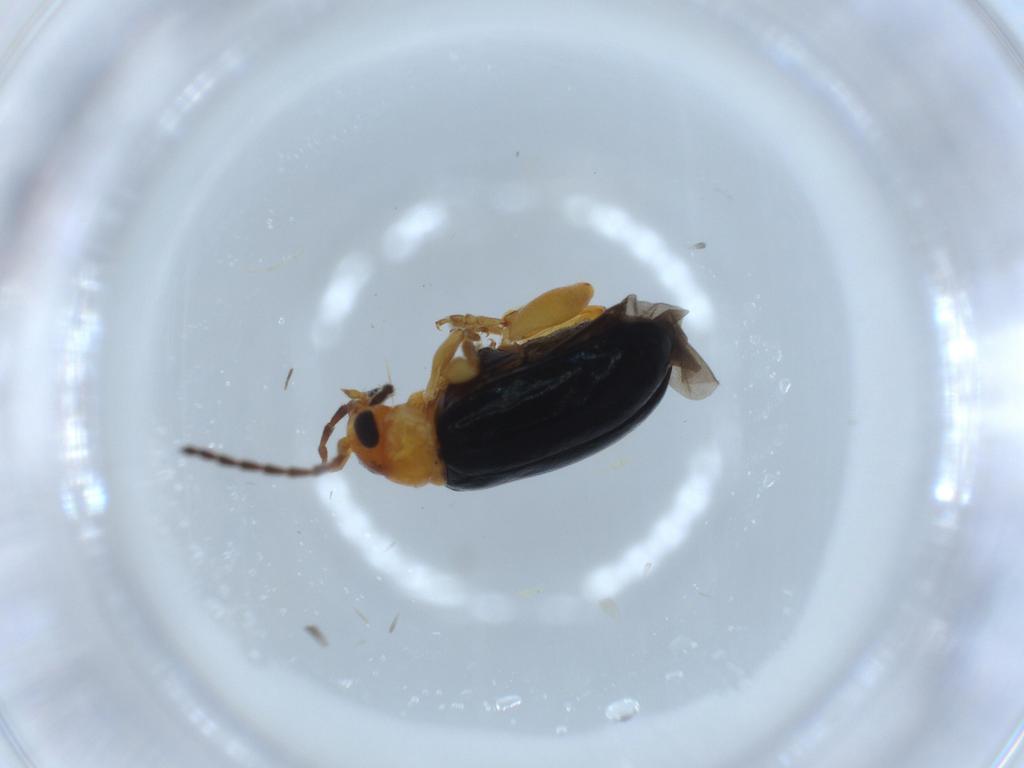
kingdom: Animalia
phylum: Arthropoda
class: Insecta
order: Coleoptera
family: Chrysomelidae
